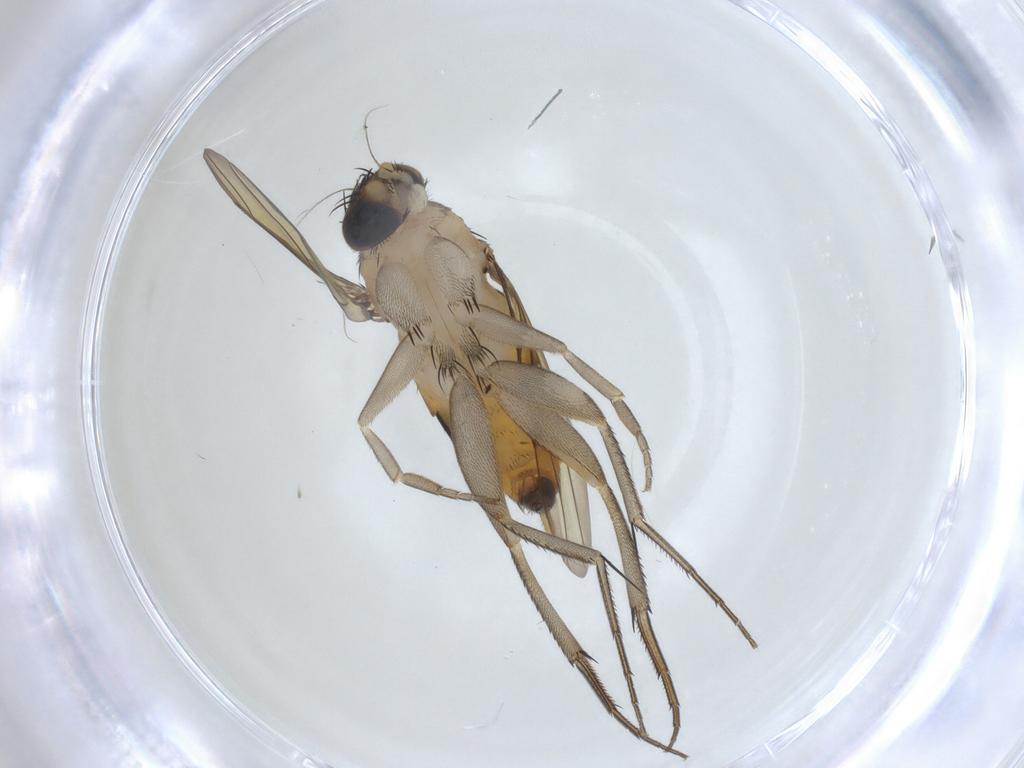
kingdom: Animalia
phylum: Arthropoda
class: Insecta
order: Diptera
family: Phoridae
